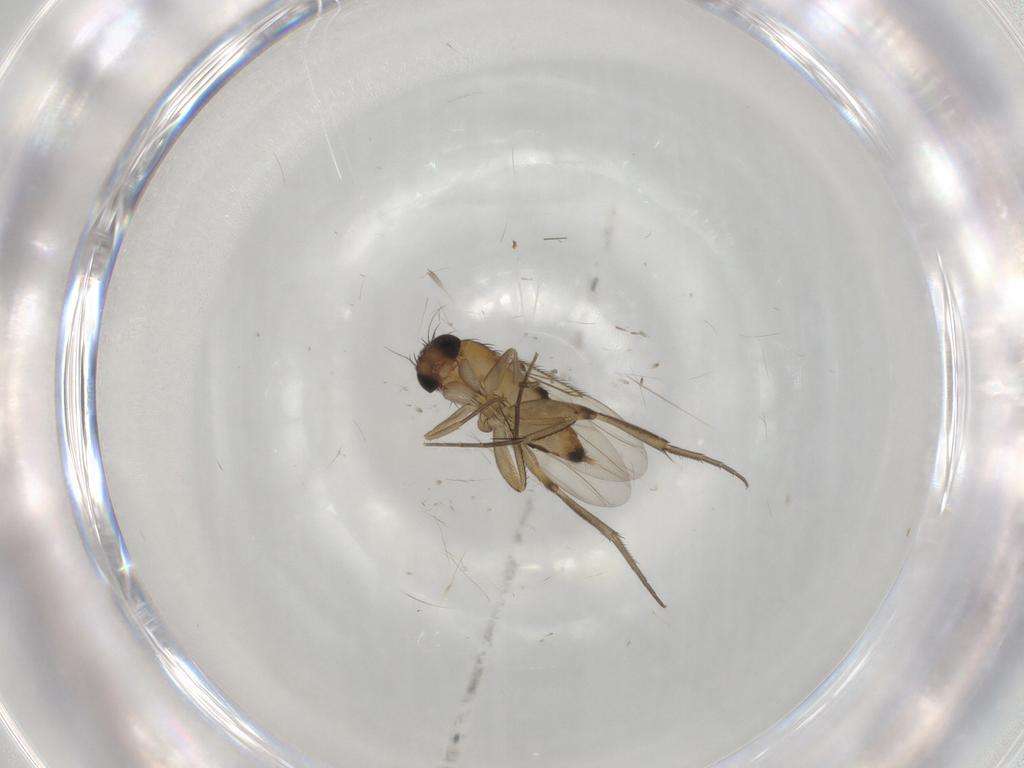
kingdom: Animalia
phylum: Arthropoda
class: Insecta
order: Diptera
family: Phoridae
